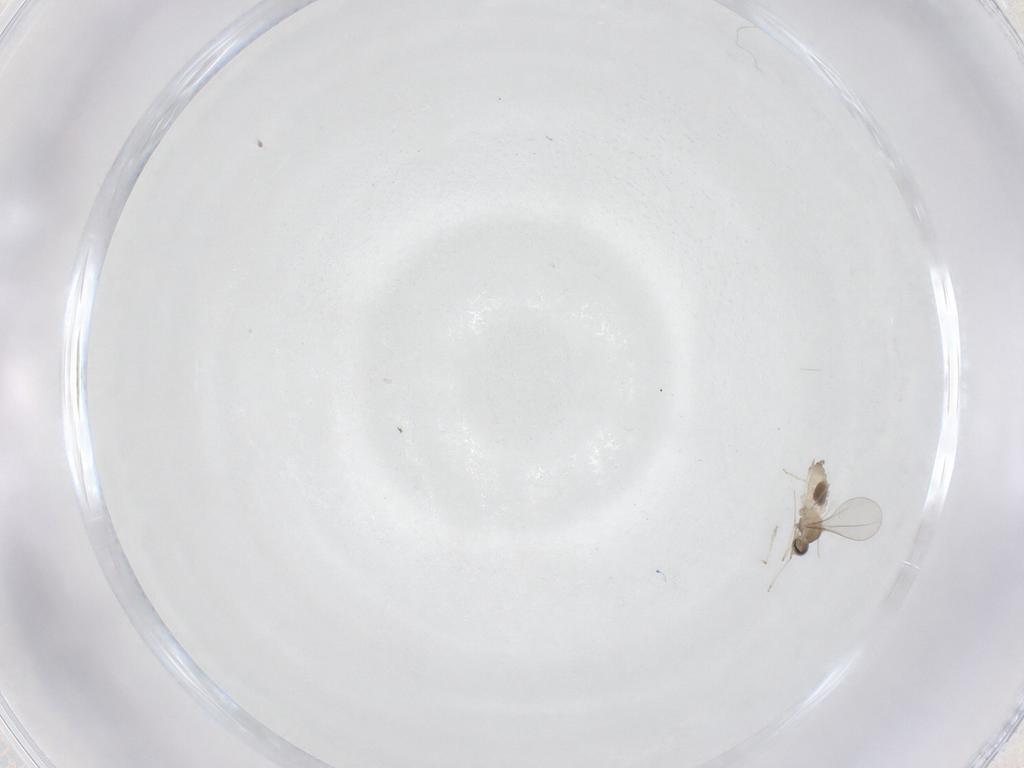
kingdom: Animalia
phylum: Arthropoda
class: Insecta
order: Diptera
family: Cecidomyiidae
